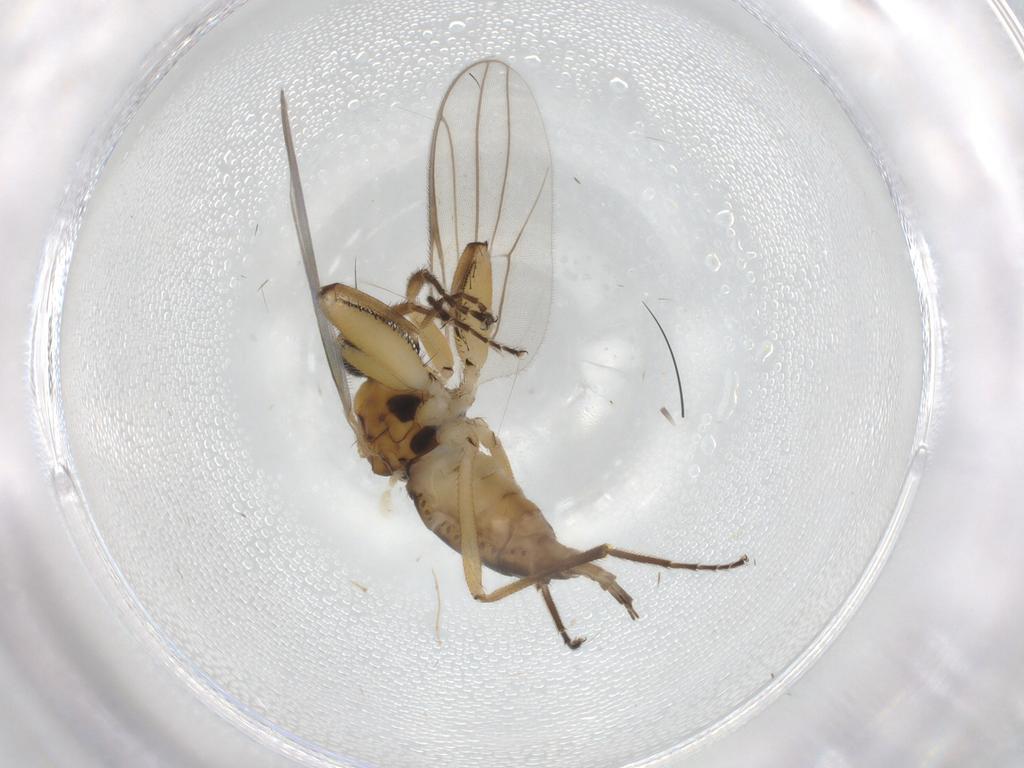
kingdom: Animalia
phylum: Arthropoda
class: Insecta
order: Diptera
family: Hybotidae
